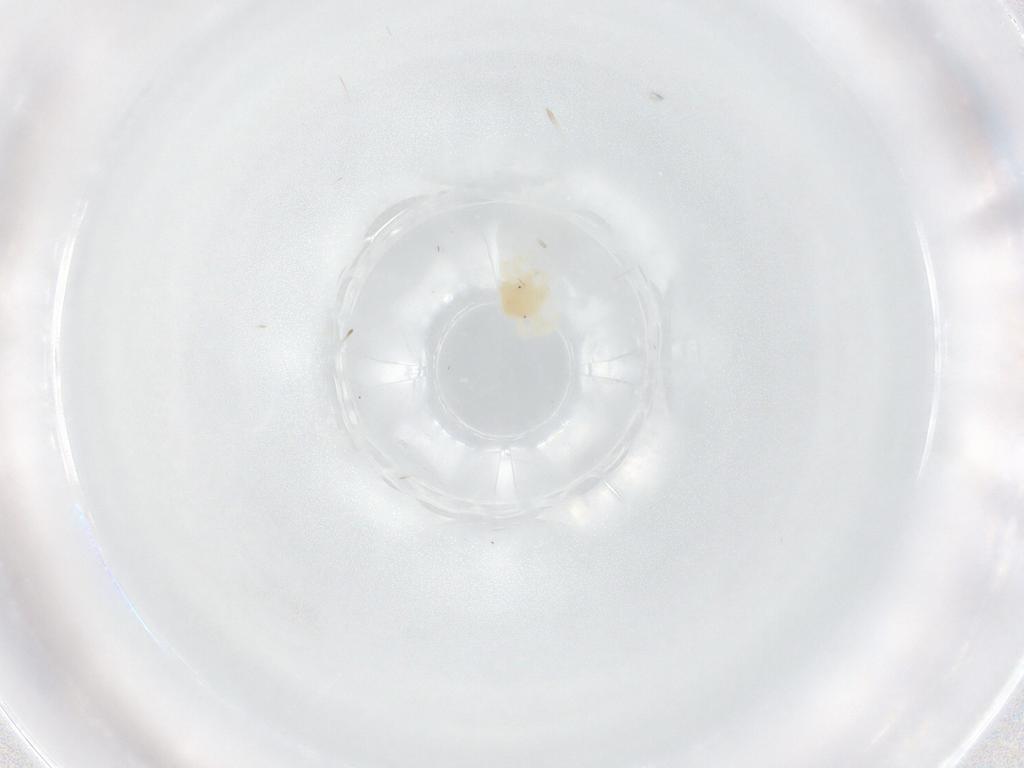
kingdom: Animalia
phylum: Arthropoda
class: Arachnida
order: Trombidiformes
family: Anystidae
